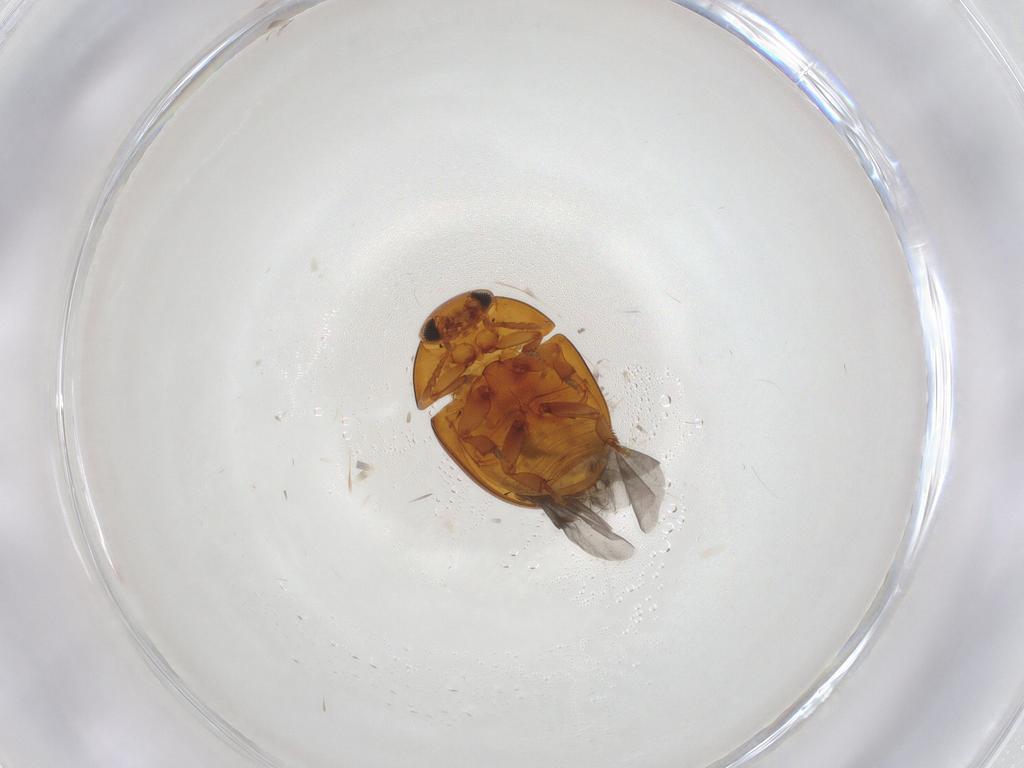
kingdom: Animalia
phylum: Arthropoda
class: Insecta
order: Coleoptera
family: Phalacridae
